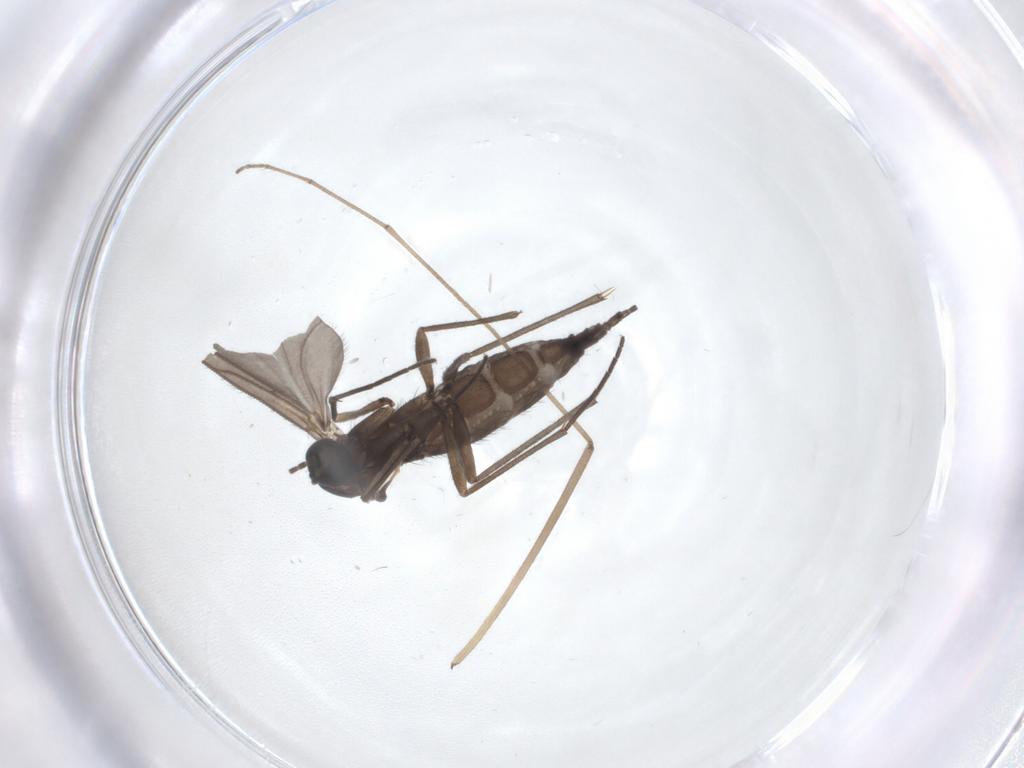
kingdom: Animalia
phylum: Arthropoda
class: Insecta
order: Diptera
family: Sciaridae
